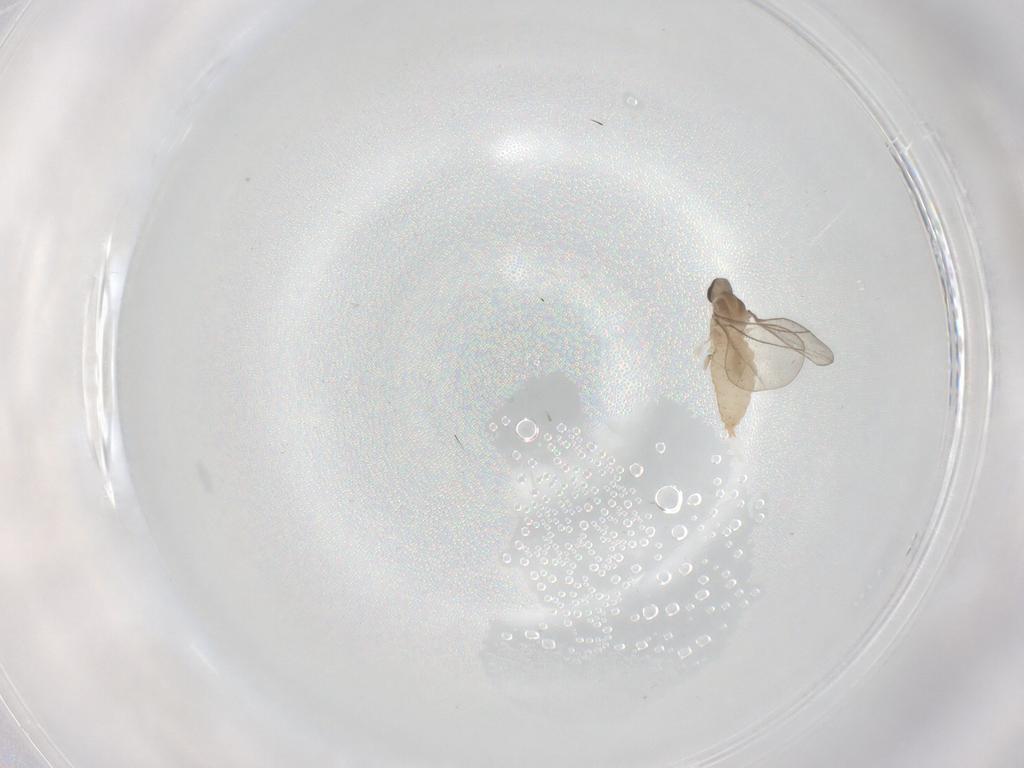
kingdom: Animalia
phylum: Arthropoda
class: Insecta
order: Diptera
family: Cecidomyiidae
